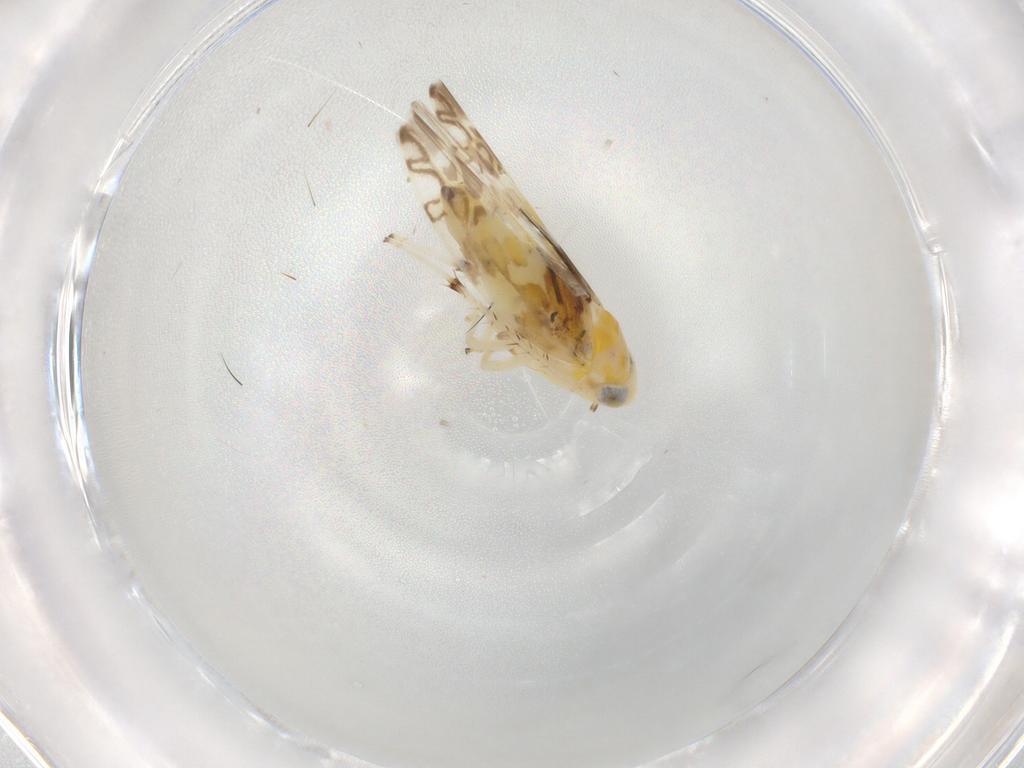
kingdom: Animalia
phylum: Arthropoda
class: Insecta
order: Hemiptera
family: Cicadellidae
